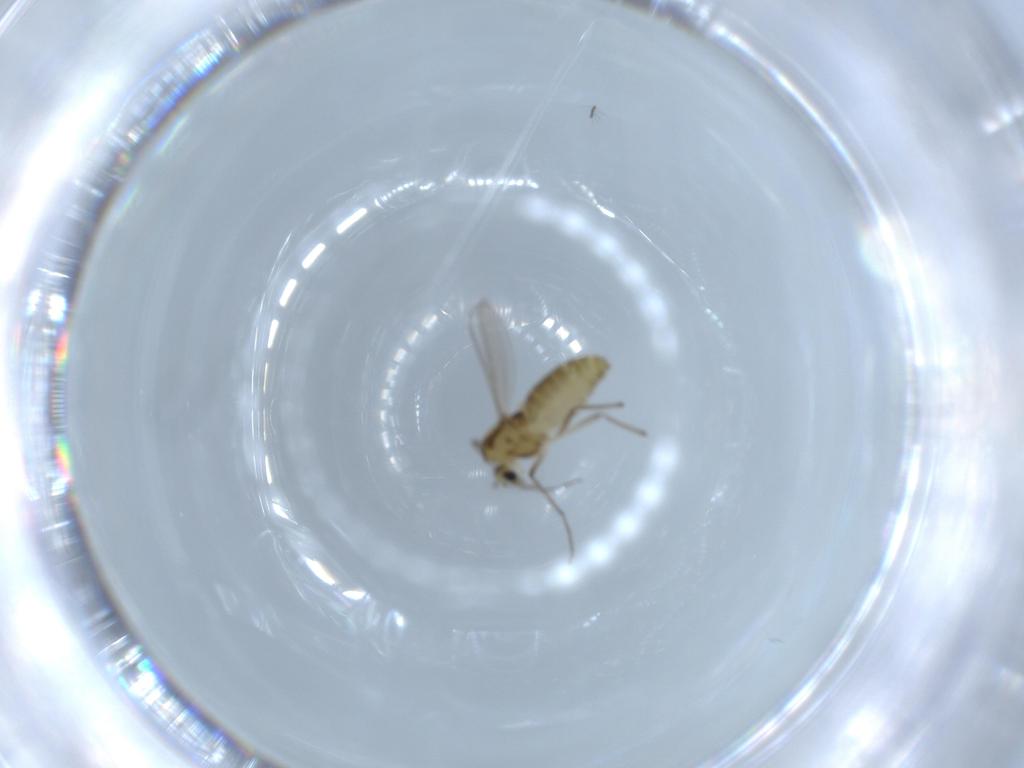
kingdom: Animalia
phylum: Arthropoda
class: Insecta
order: Diptera
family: Chironomidae
